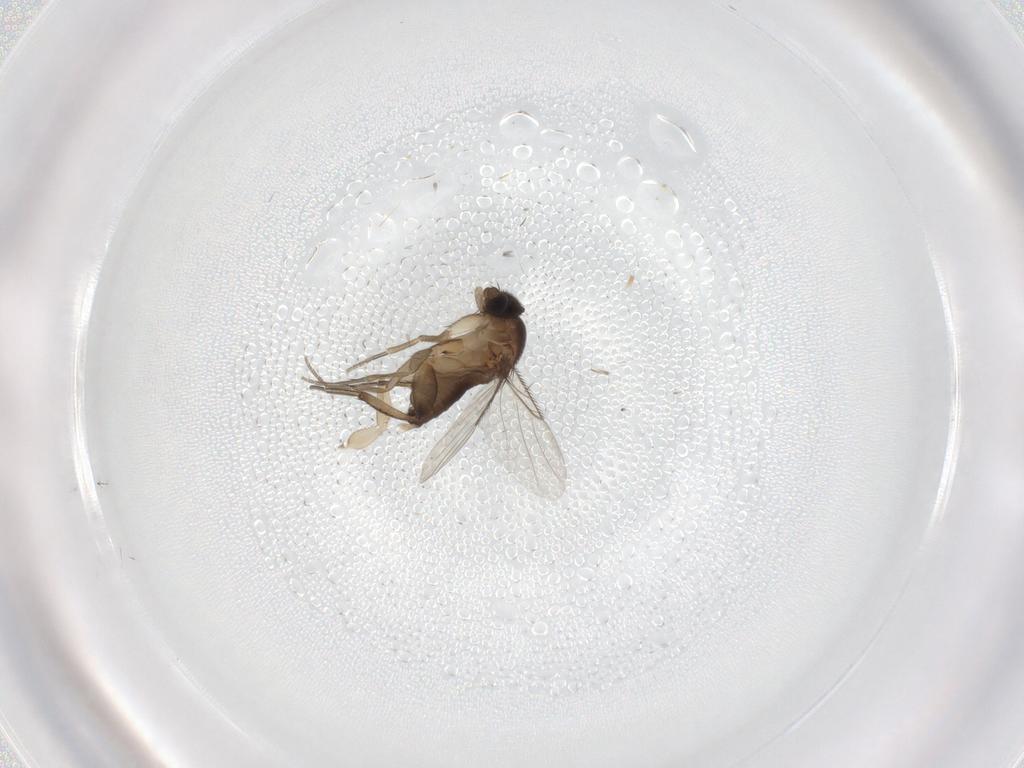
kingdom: Animalia
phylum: Arthropoda
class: Insecta
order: Diptera
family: Phoridae
